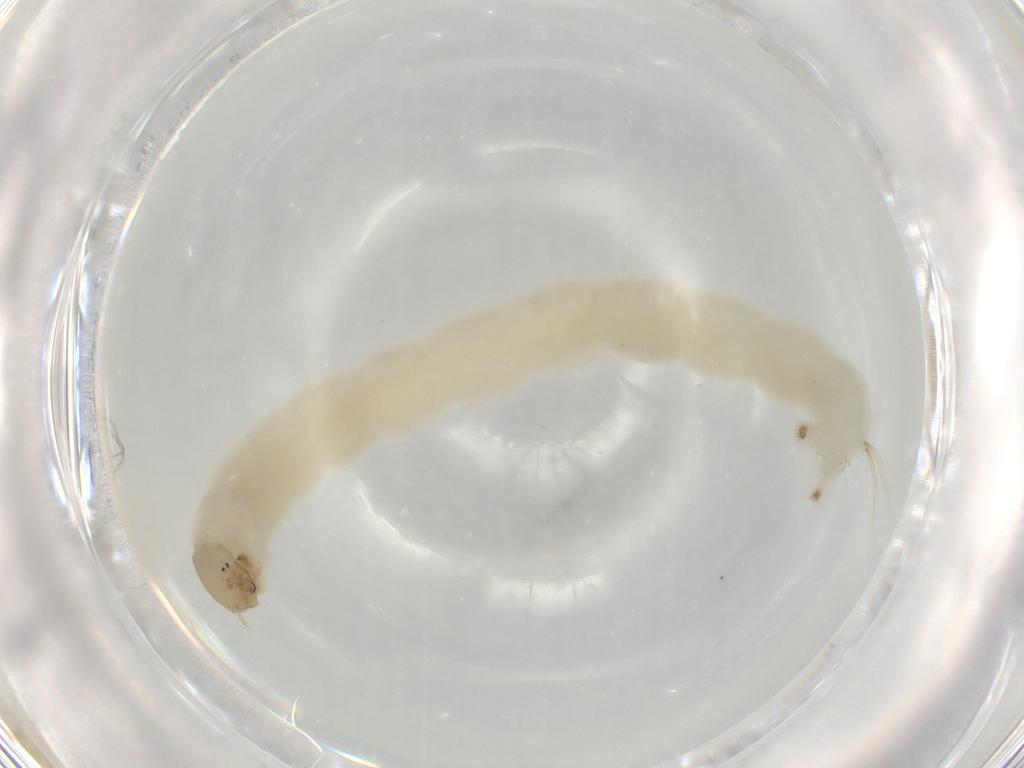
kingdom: Animalia
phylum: Arthropoda
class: Insecta
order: Diptera
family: Chironomidae
